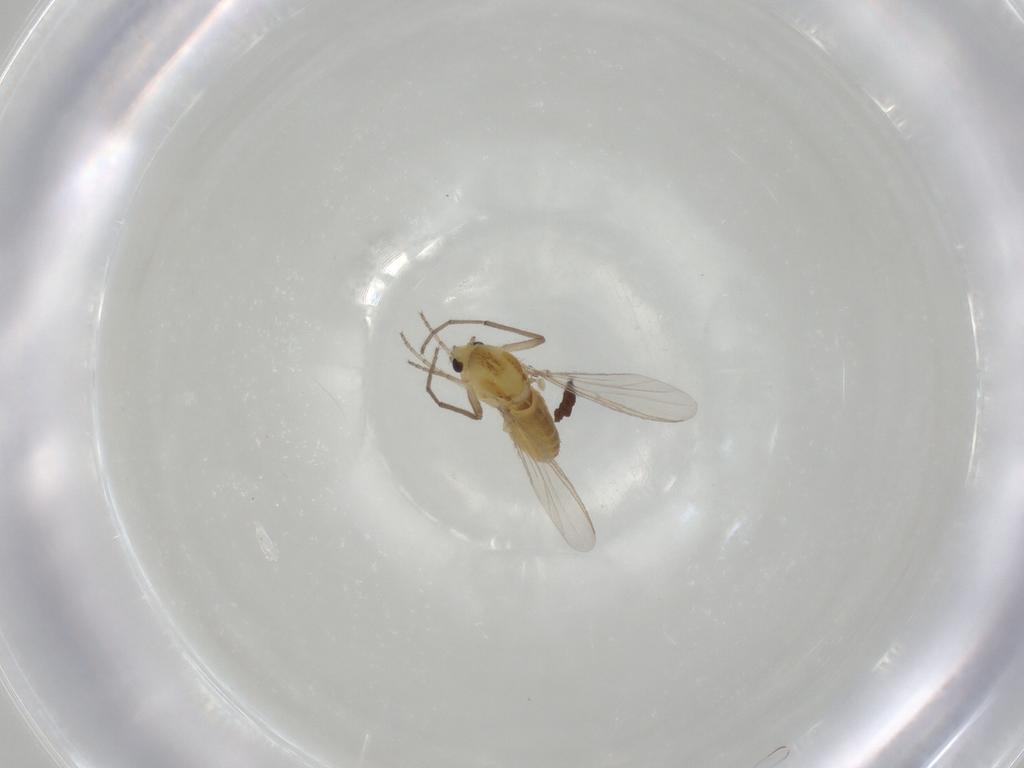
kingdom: Animalia
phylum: Arthropoda
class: Insecta
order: Diptera
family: Tipulidae
